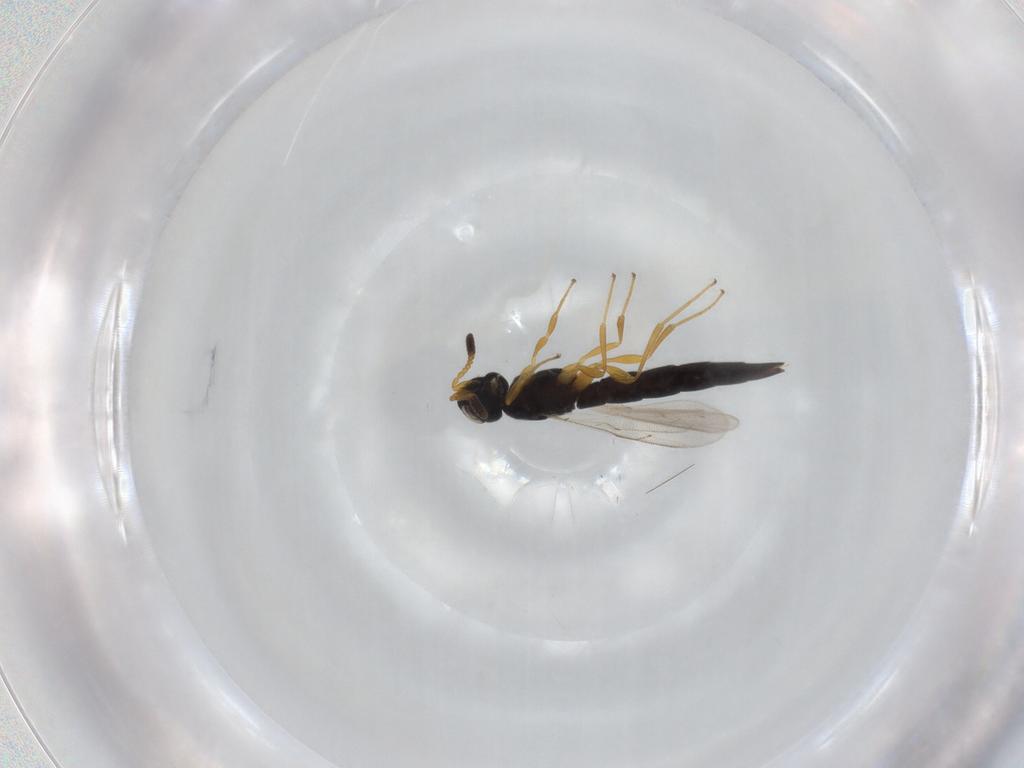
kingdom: Animalia
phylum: Arthropoda
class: Insecta
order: Hymenoptera
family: Scelionidae
